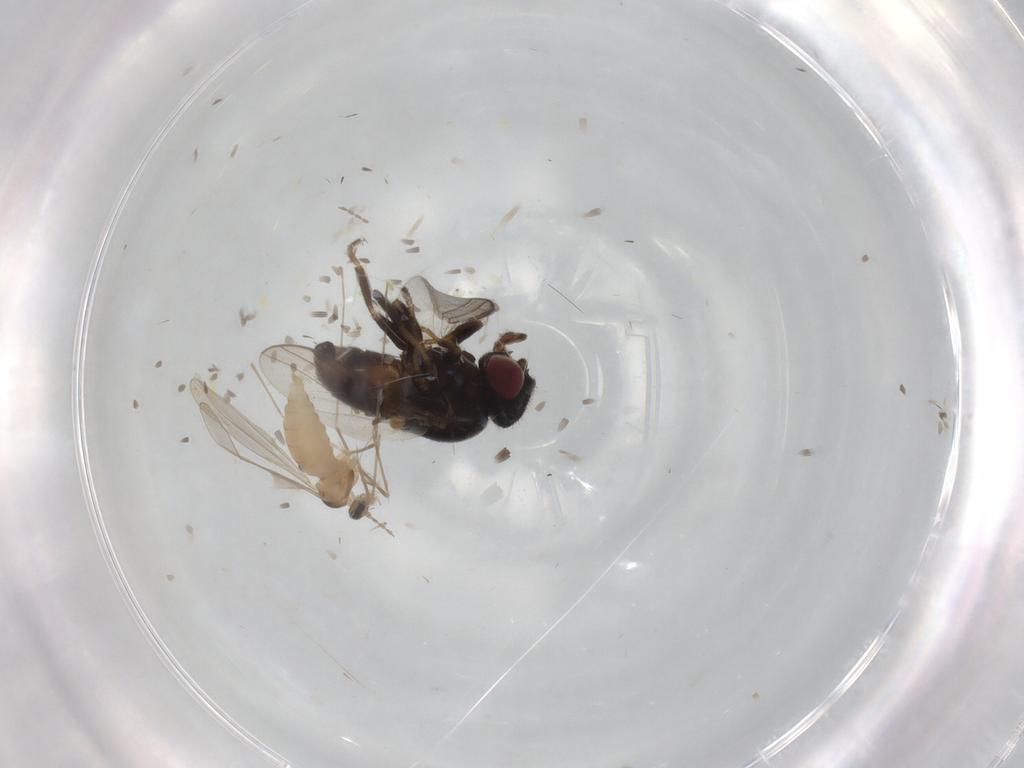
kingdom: Animalia
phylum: Arthropoda
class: Insecta
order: Diptera
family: Chloropidae
